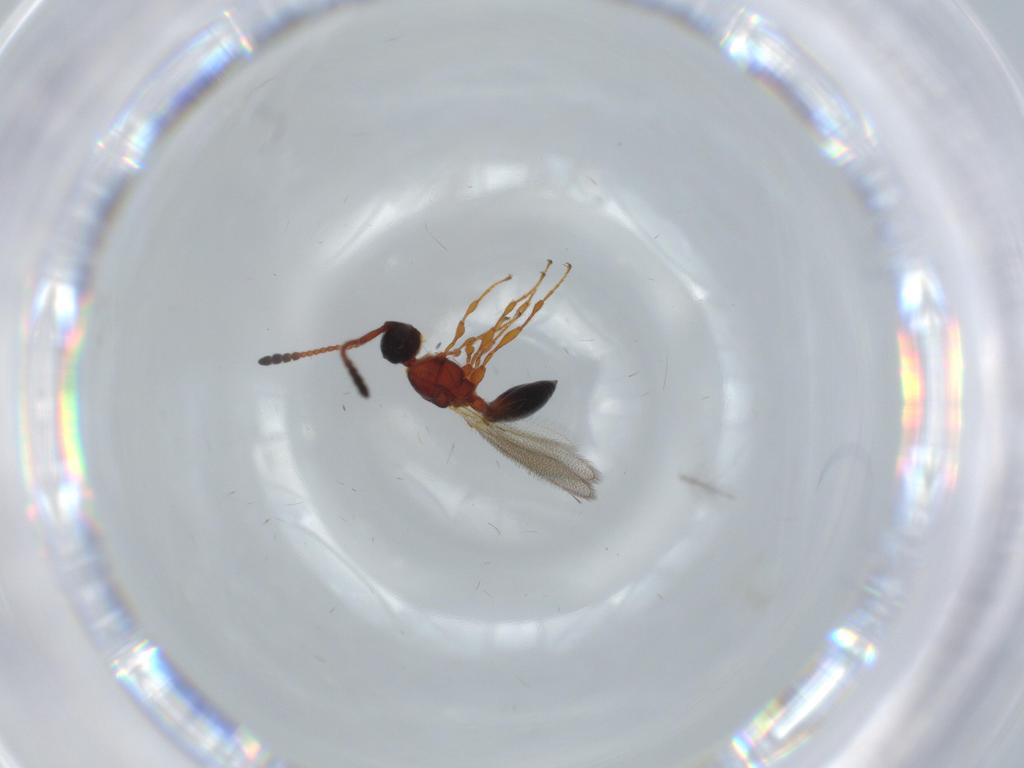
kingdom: Animalia
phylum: Arthropoda
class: Insecta
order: Hymenoptera
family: Diapriidae
